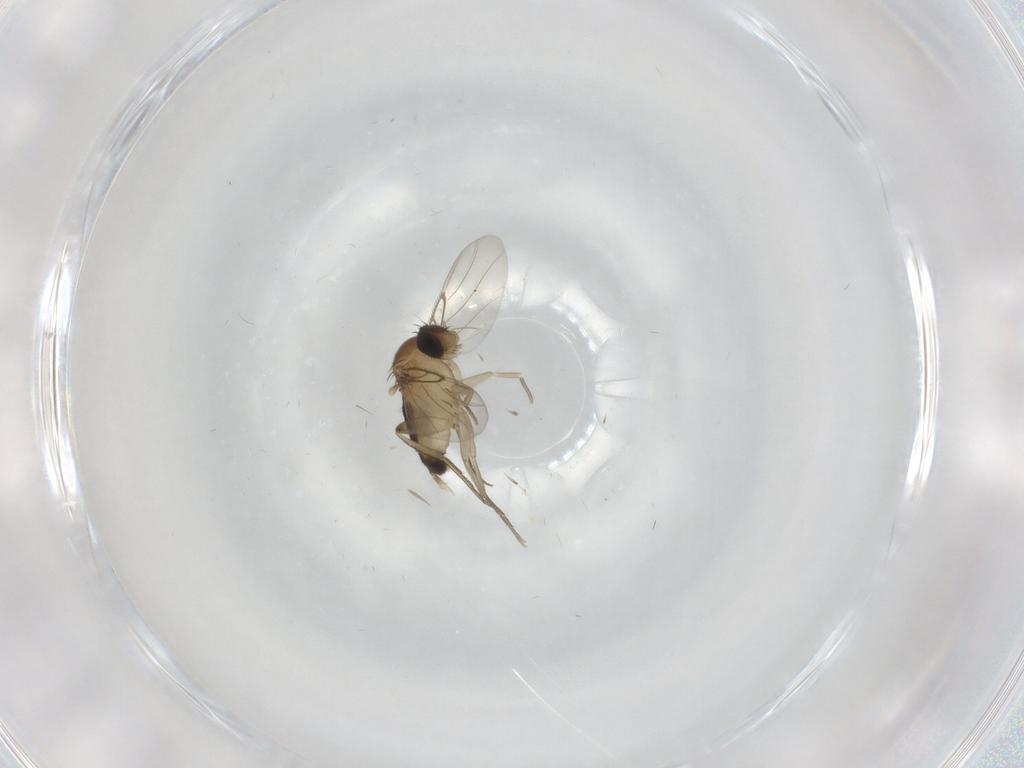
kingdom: Animalia
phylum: Arthropoda
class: Insecta
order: Diptera
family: Phoridae
